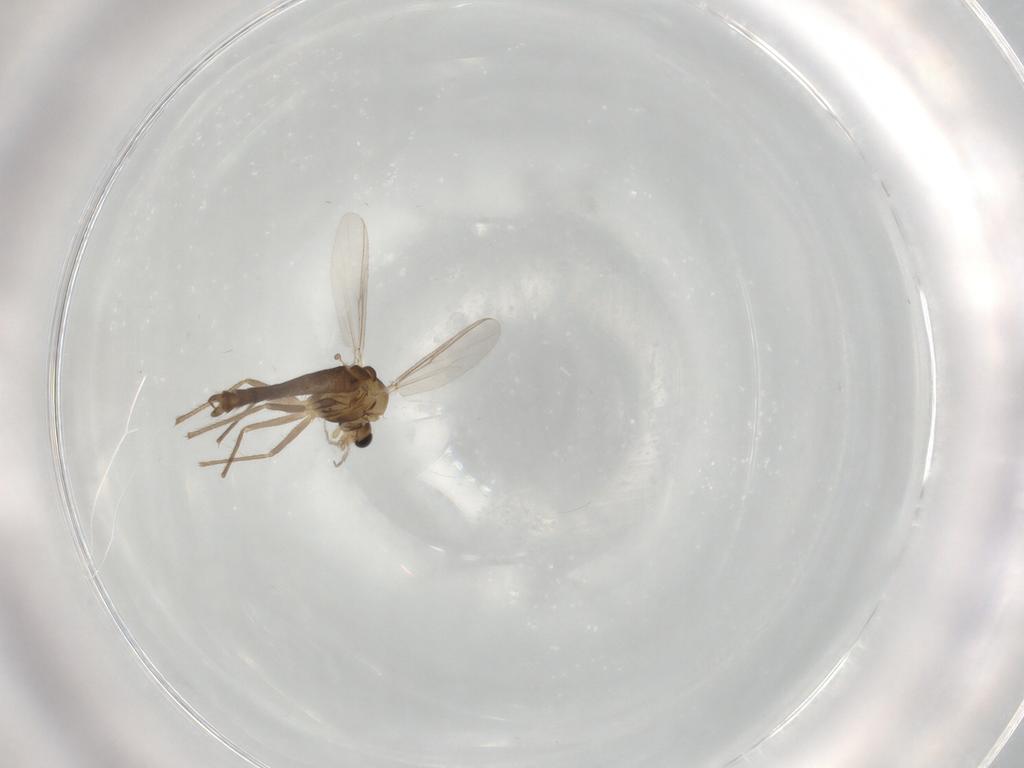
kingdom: Animalia
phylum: Arthropoda
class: Insecta
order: Diptera
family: Chironomidae
